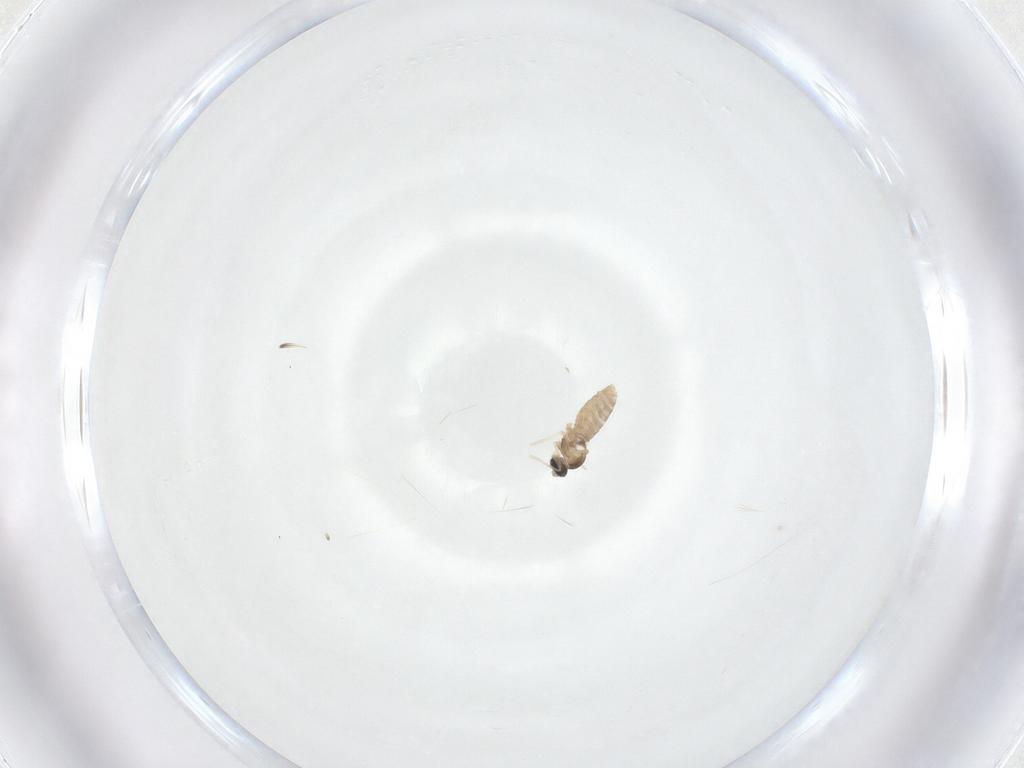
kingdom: Animalia
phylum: Arthropoda
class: Insecta
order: Diptera
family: Cecidomyiidae
